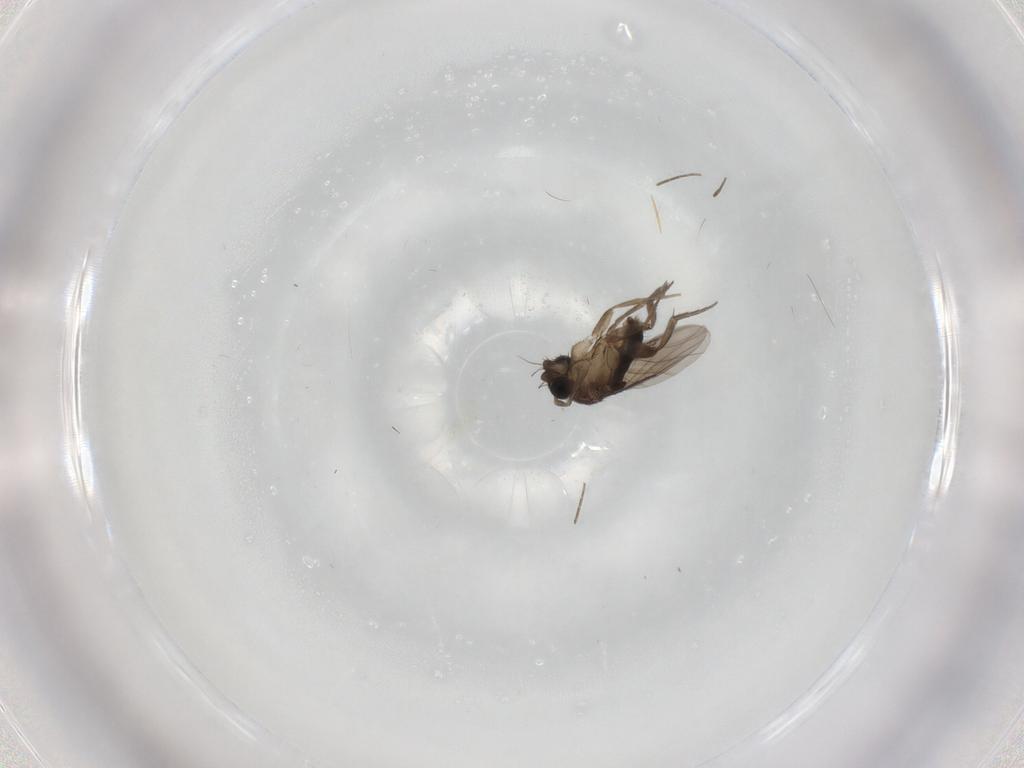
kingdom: Animalia
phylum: Arthropoda
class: Insecta
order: Diptera
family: Phoridae
